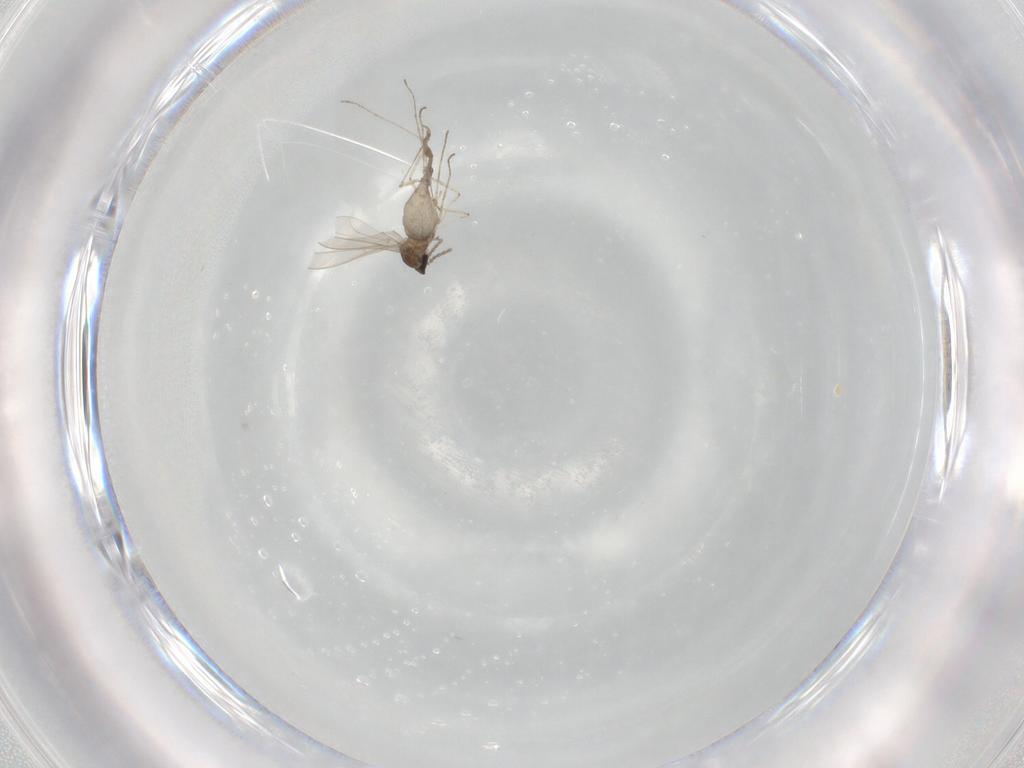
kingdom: Animalia
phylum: Arthropoda
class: Insecta
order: Diptera
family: Cecidomyiidae
